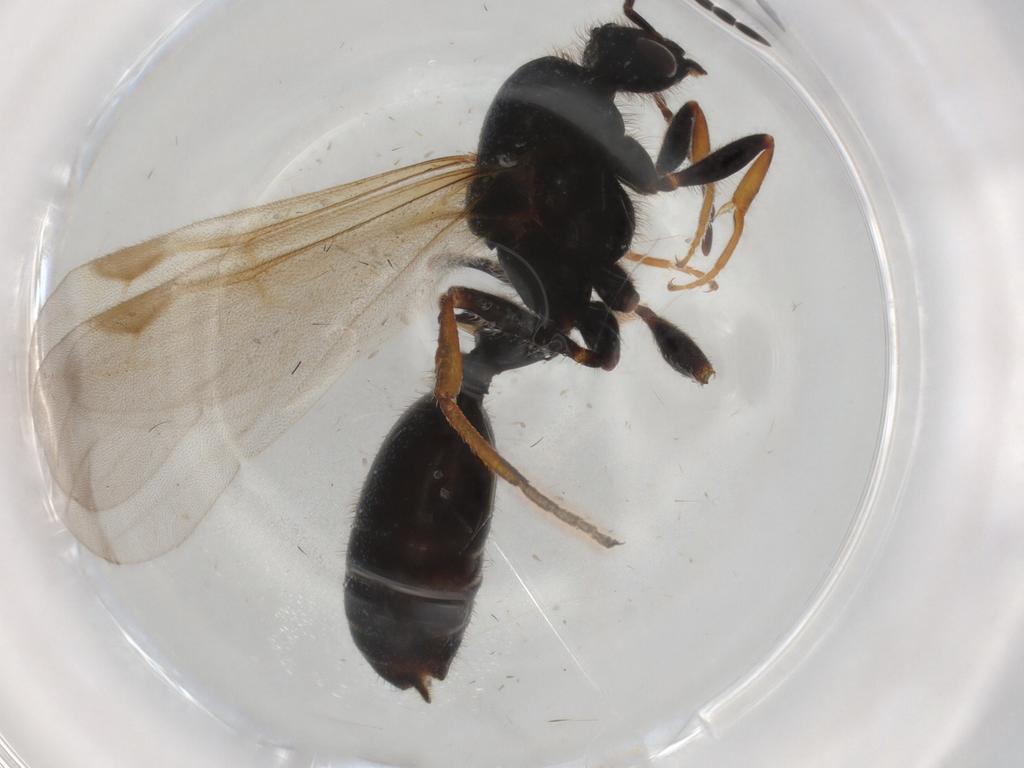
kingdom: Animalia
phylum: Arthropoda
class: Insecta
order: Hymenoptera
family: Formicidae
